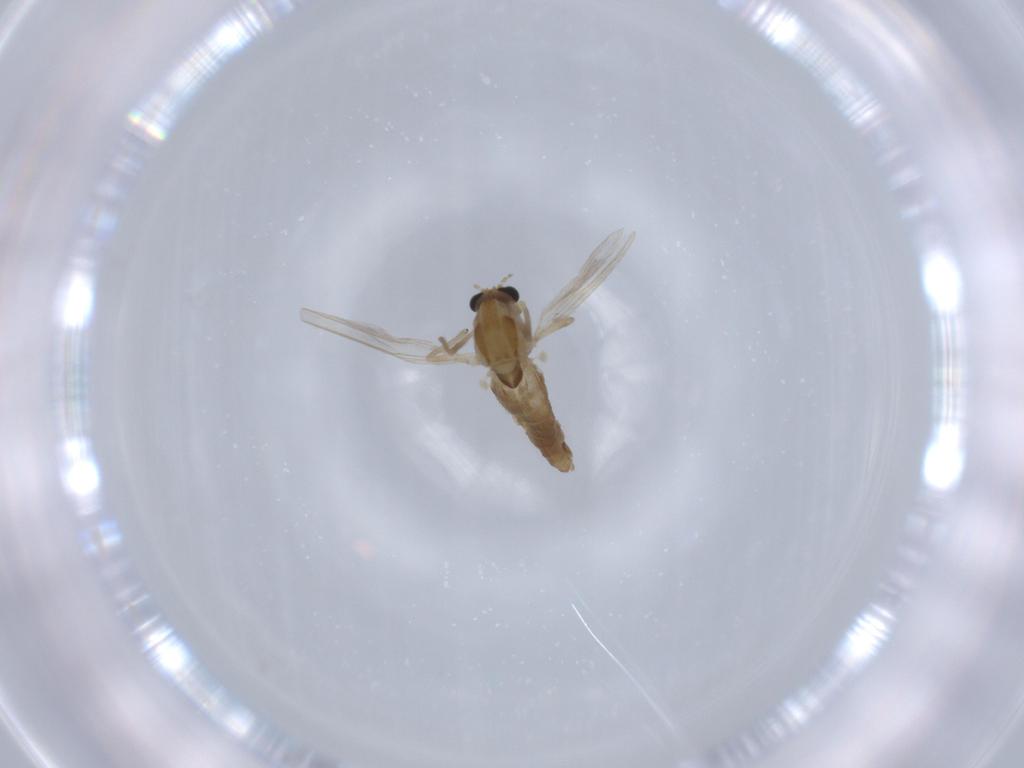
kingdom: Animalia
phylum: Arthropoda
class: Insecta
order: Diptera
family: Chironomidae
